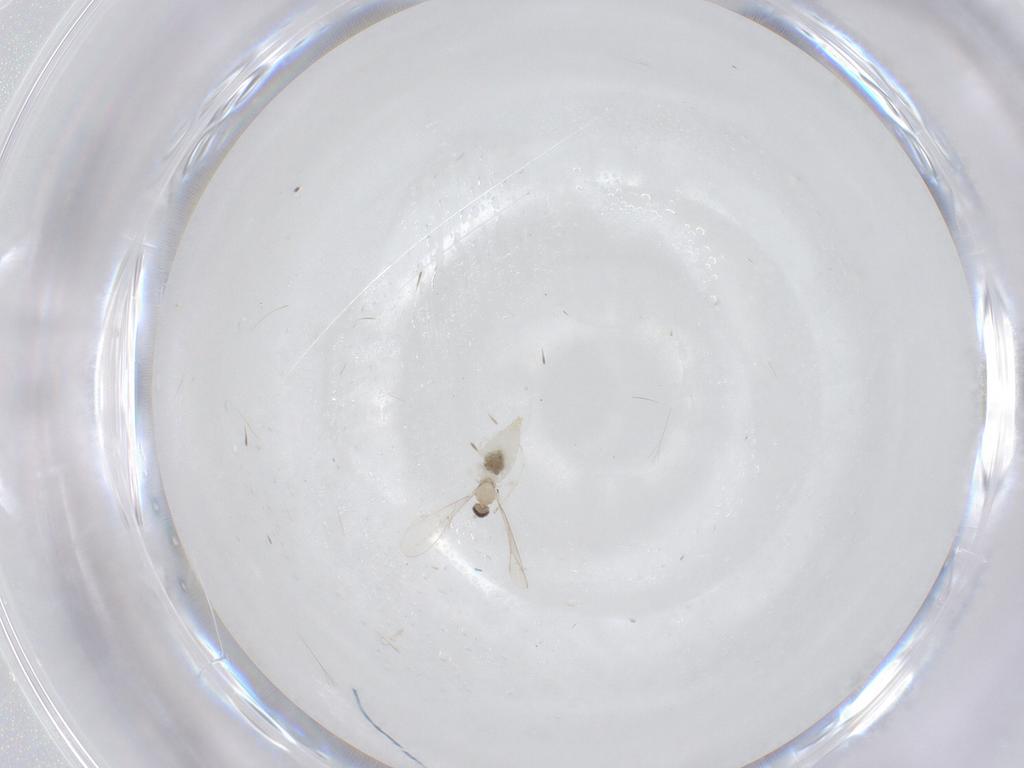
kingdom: Animalia
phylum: Arthropoda
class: Insecta
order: Diptera
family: Cecidomyiidae
